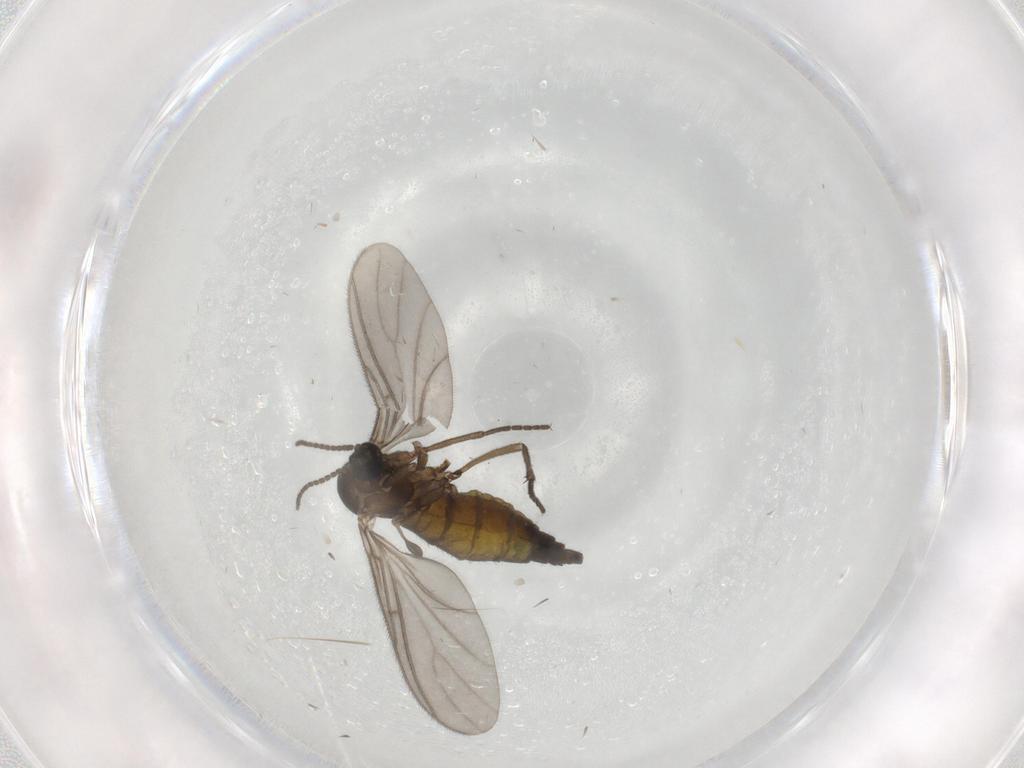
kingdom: Animalia
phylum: Arthropoda
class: Insecta
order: Diptera
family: Sciaridae
